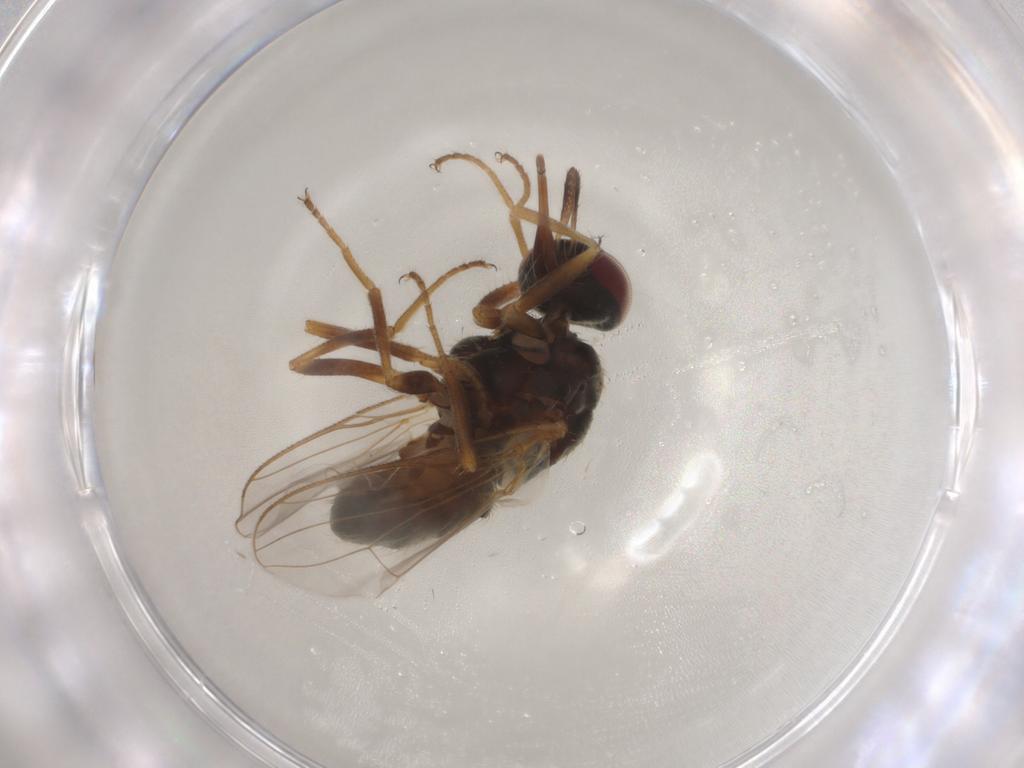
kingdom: Animalia
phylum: Arthropoda
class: Insecta
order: Diptera
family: Muscidae
